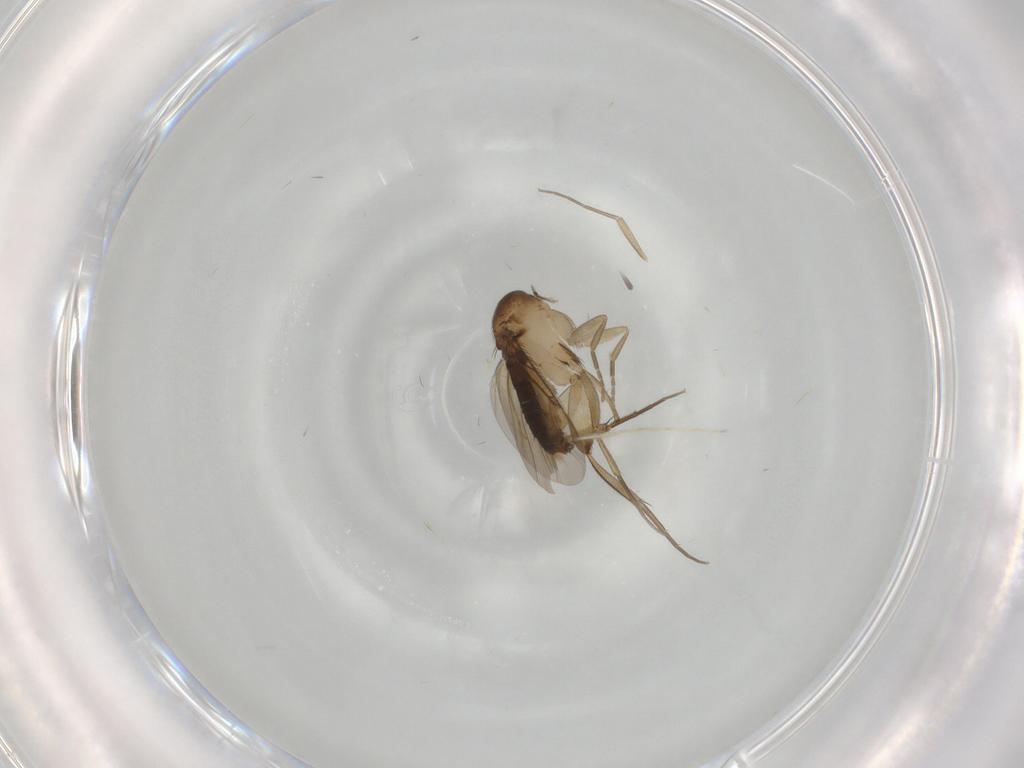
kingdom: Animalia
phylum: Arthropoda
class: Insecta
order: Diptera
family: Phoridae
